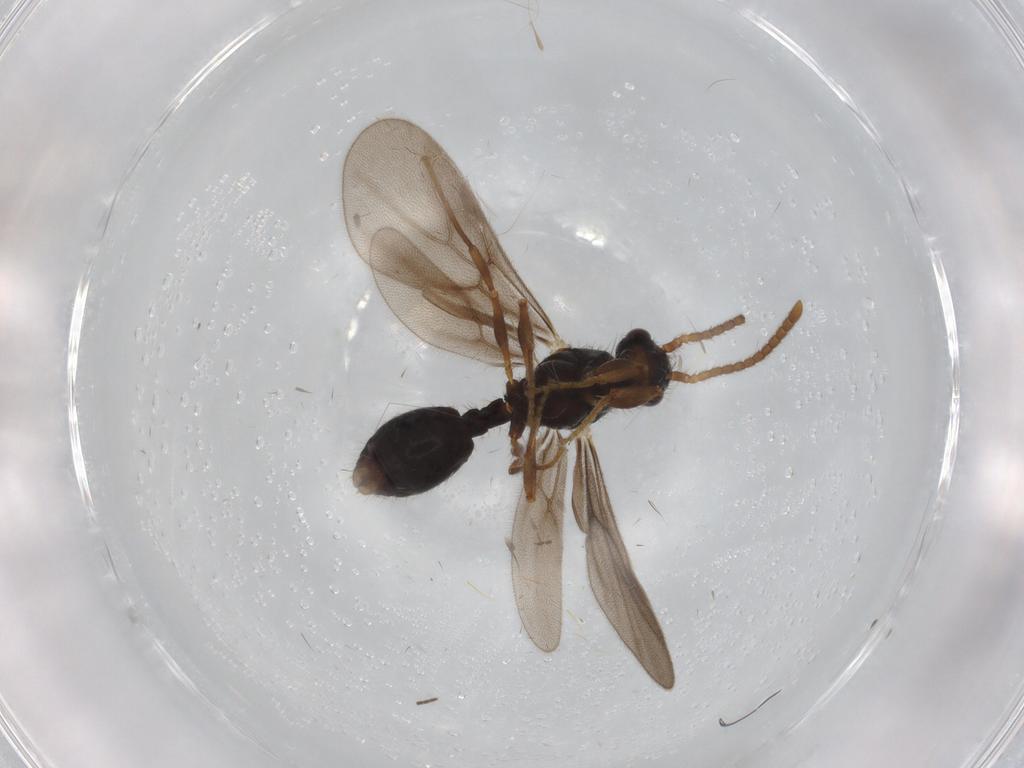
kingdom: Animalia
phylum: Arthropoda
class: Insecta
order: Hymenoptera
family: Formicidae
